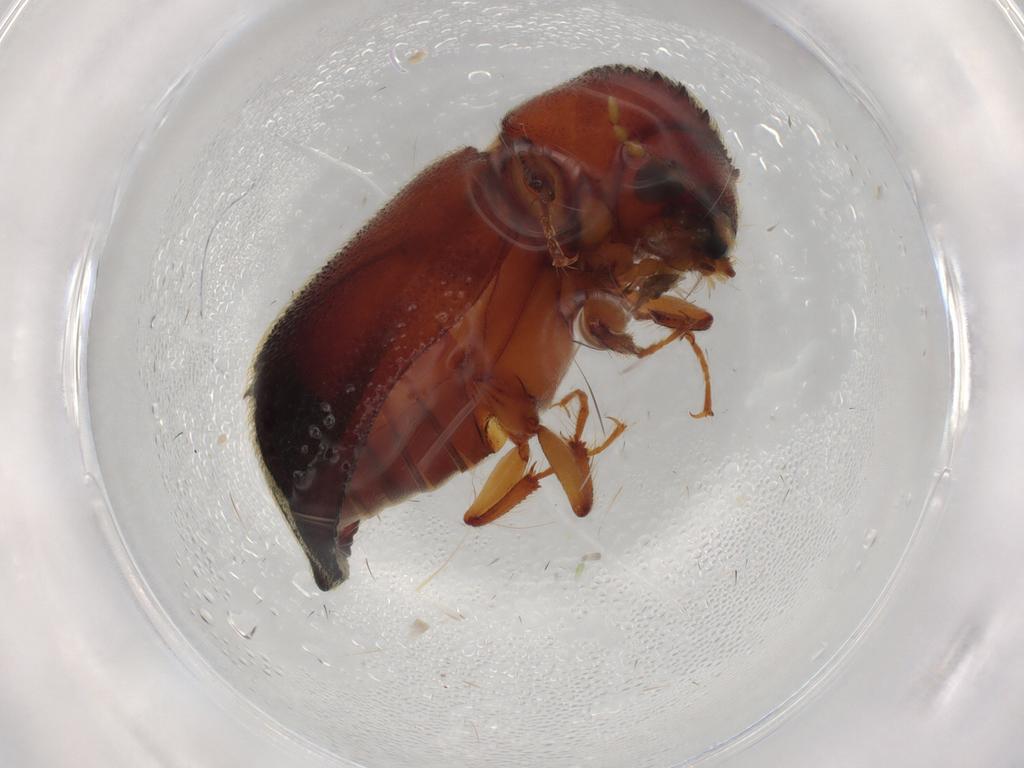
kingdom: Animalia
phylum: Arthropoda
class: Insecta
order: Coleoptera
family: Bostrichidae
